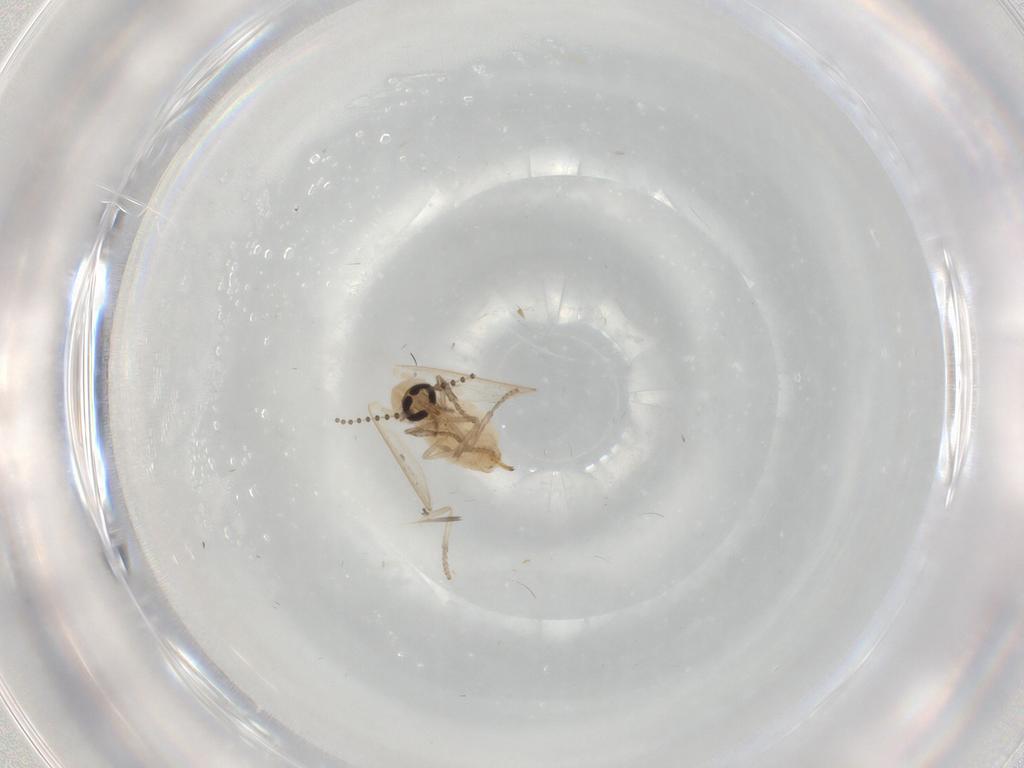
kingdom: Animalia
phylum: Arthropoda
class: Insecta
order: Diptera
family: Psychodidae
